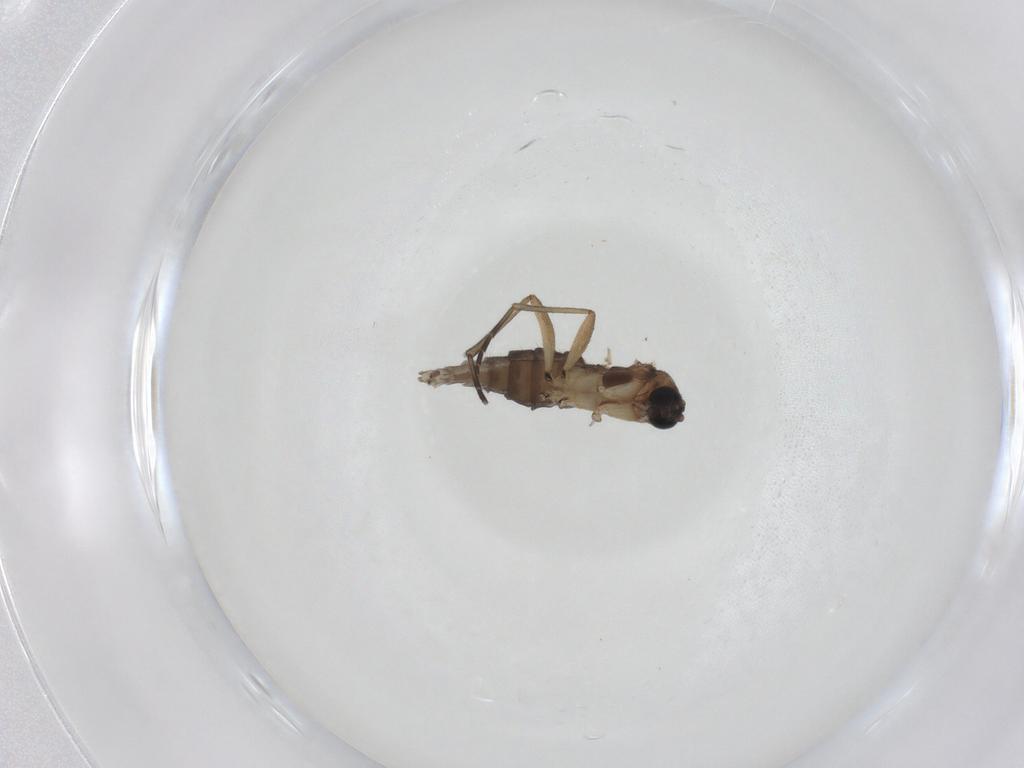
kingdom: Animalia
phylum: Arthropoda
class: Insecta
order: Diptera
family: Sciaridae
